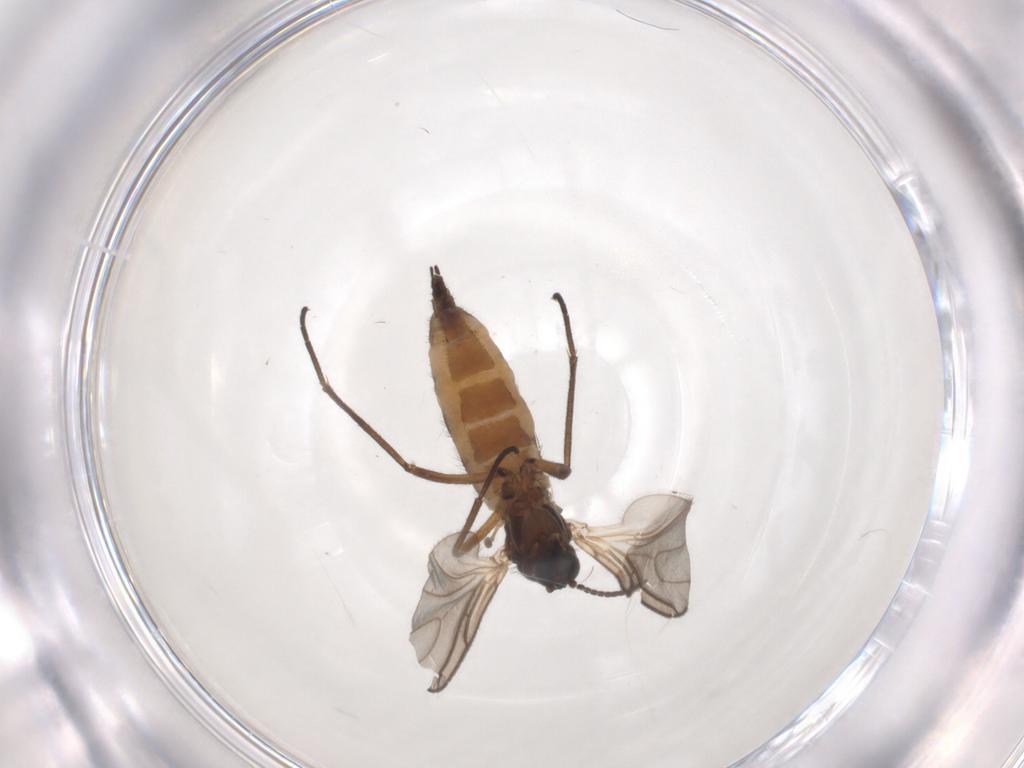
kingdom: Animalia
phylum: Arthropoda
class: Insecta
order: Diptera
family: Sciaridae
